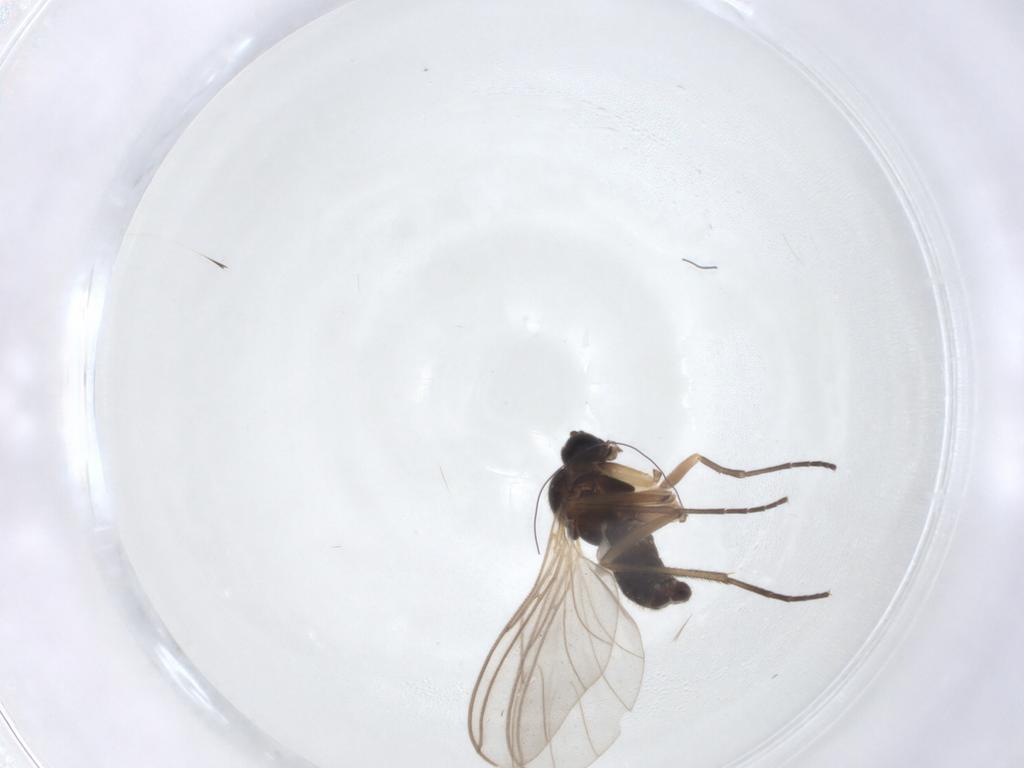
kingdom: Animalia
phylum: Arthropoda
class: Insecta
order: Diptera
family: Sciaridae
